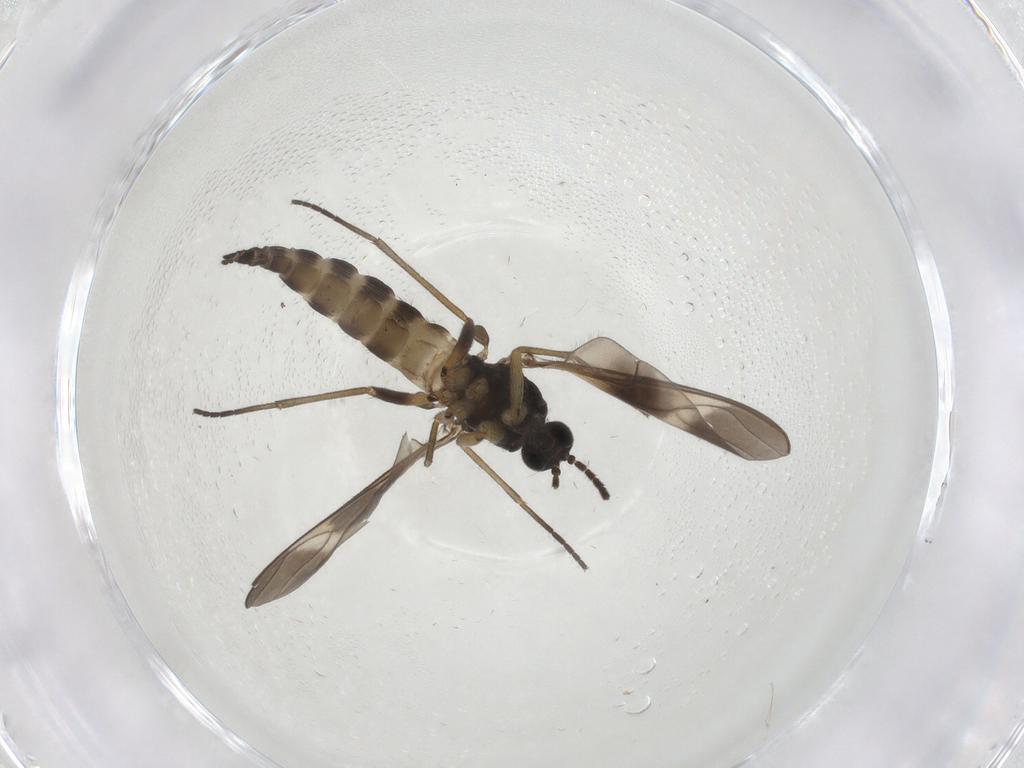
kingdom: Animalia
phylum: Arthropoda
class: Insecta
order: Diptera
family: Sciaridae
